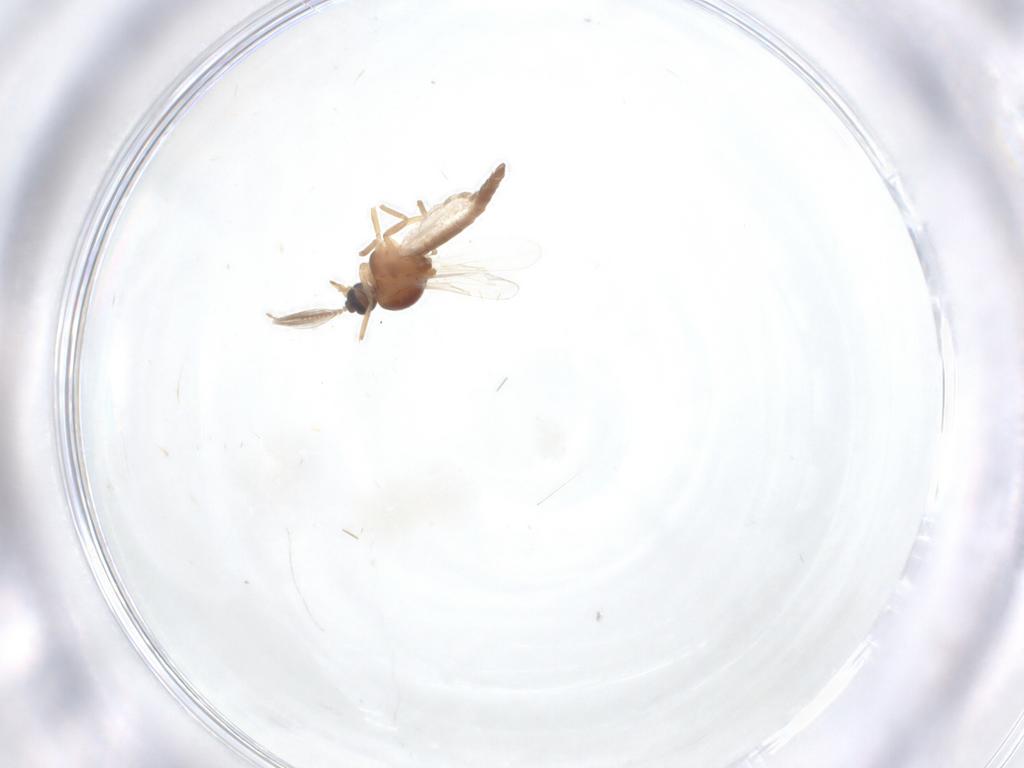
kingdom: Animalia
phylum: Arthropoda
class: Insecta
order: Diptera
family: Ceratopogonidae
